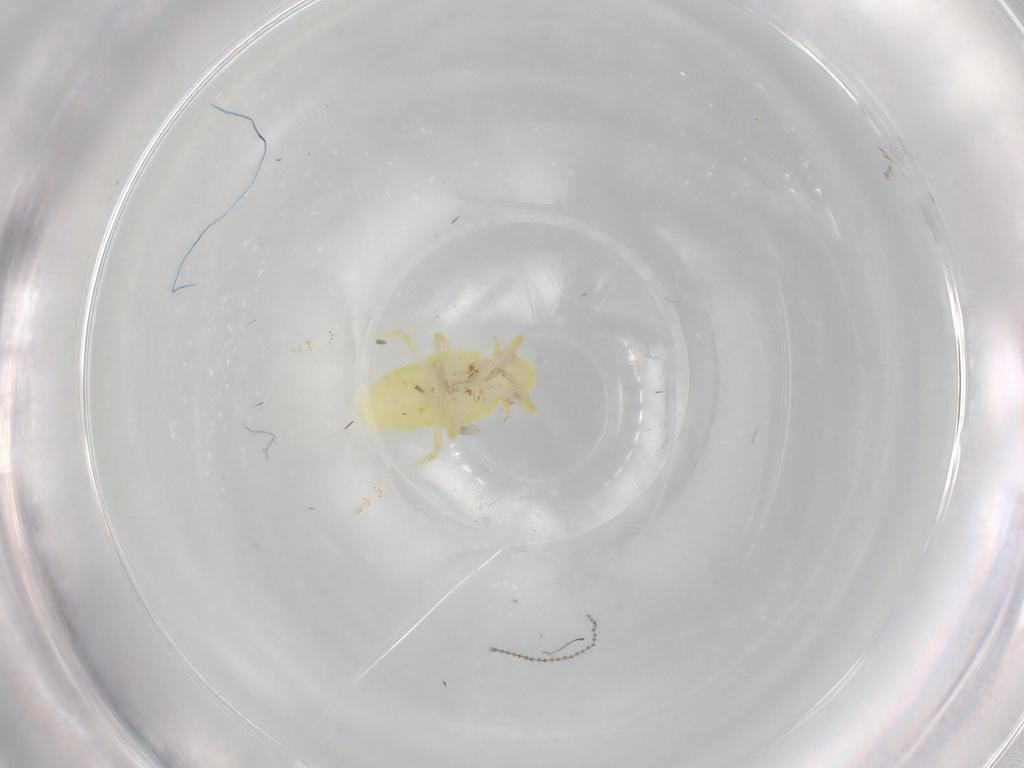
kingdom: Animalia
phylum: Arthropoda
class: Insecta
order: Hemiptera
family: Tropiduchidae
